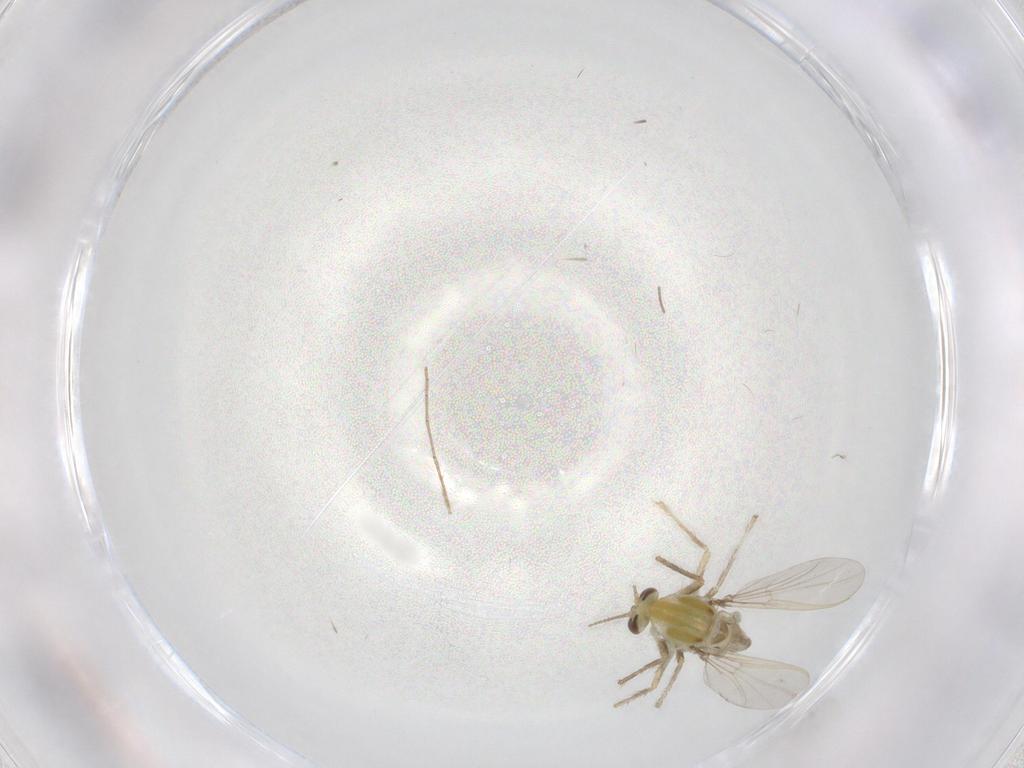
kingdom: Animalia
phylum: Arthropoda
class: Insecta
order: Diptera
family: Chironomidae
